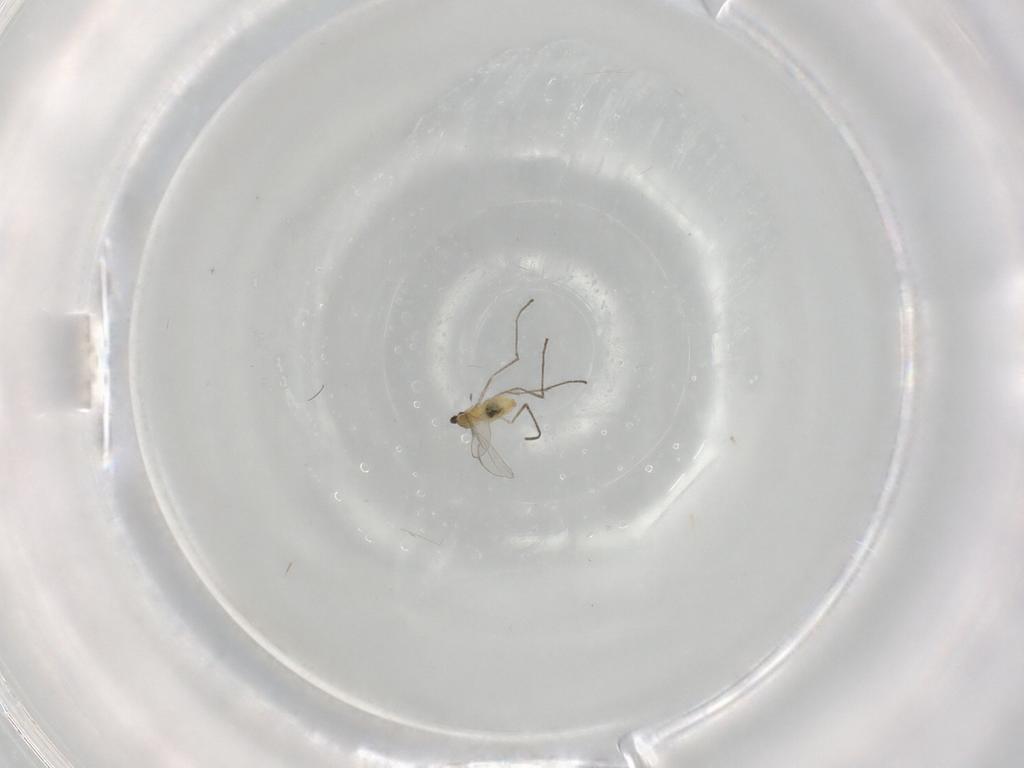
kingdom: Animalia
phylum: Arthropoda
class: Insecta
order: Diptera
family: Cecidomyiidae
